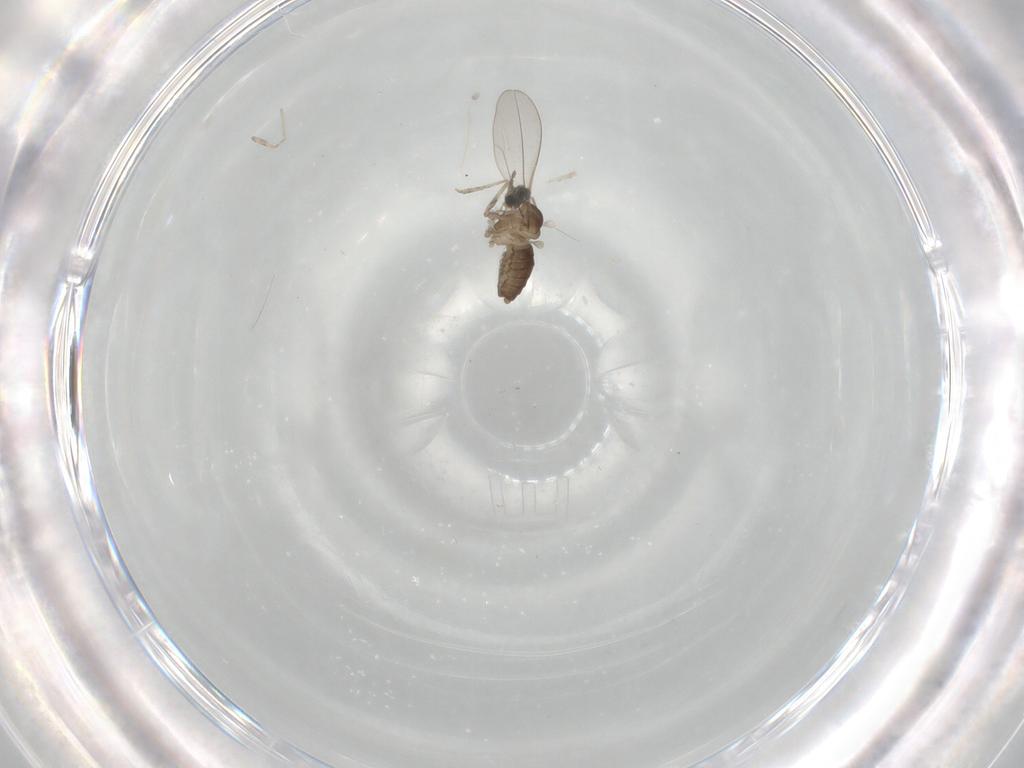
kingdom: Animalia
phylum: Arthropoda
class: Insecta
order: Diptera
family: Cecidomyiidae
